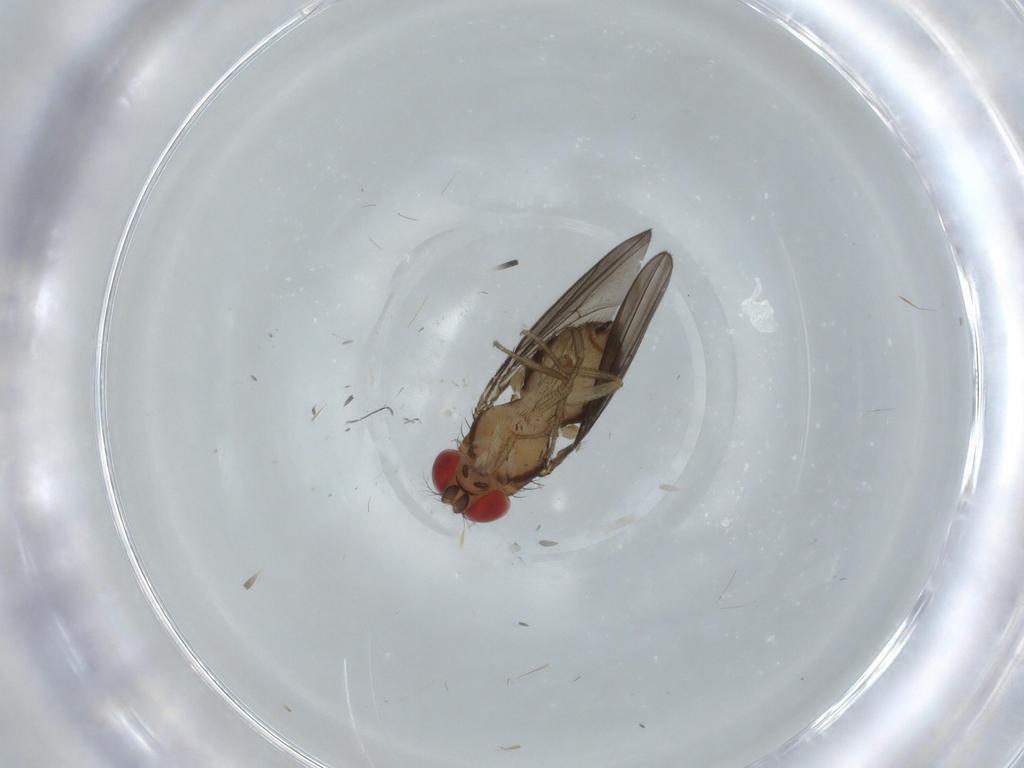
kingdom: Animalia
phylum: Arthropoda
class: Insecta
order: Diptera
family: Drosophilidae
